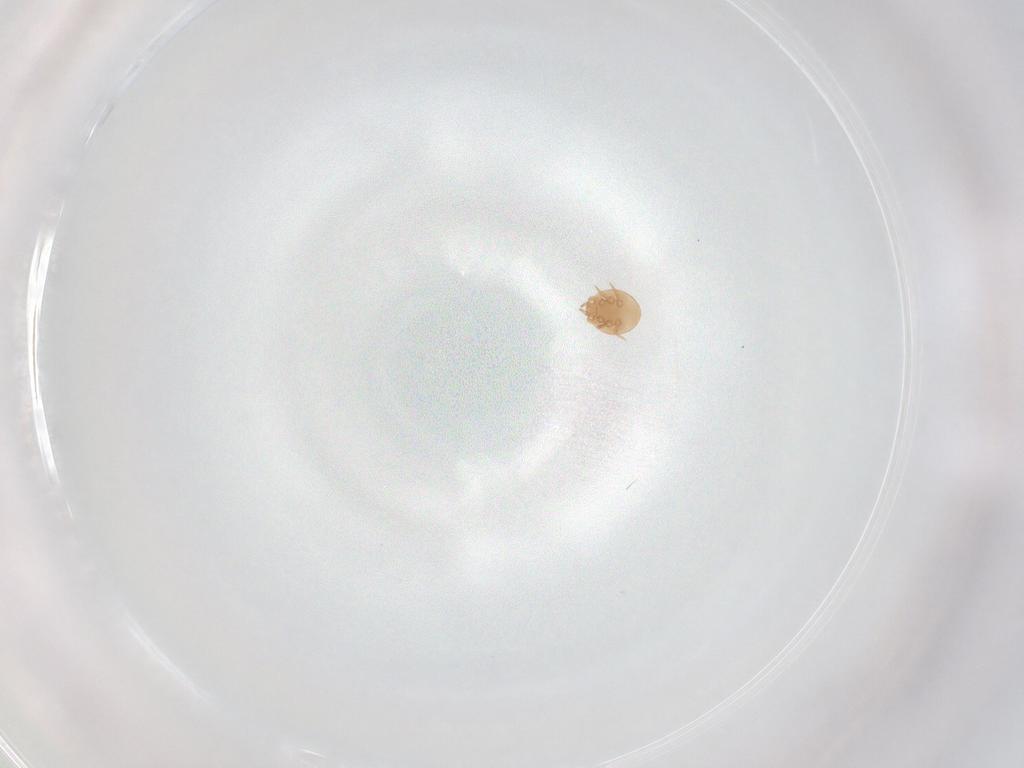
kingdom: Animalia
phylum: Arthropoda
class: Arachnida
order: Mesostigmata
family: Trematuridae
